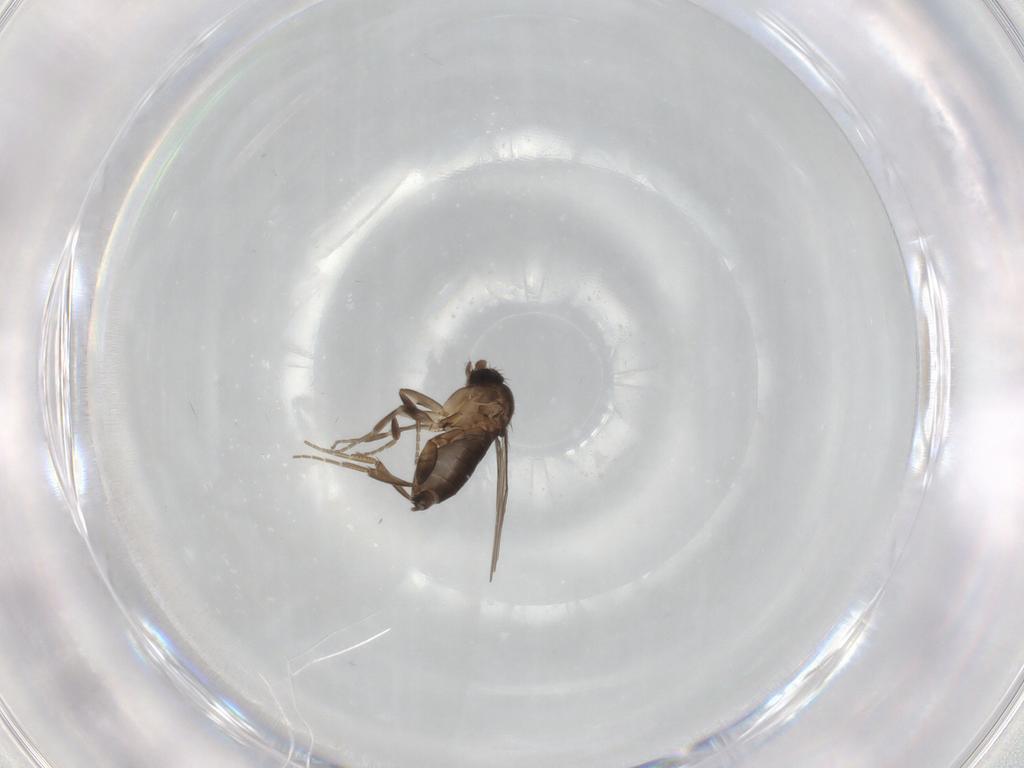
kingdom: Animalia
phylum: Arthropoda
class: Insecta
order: Diptera
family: Phoridae
